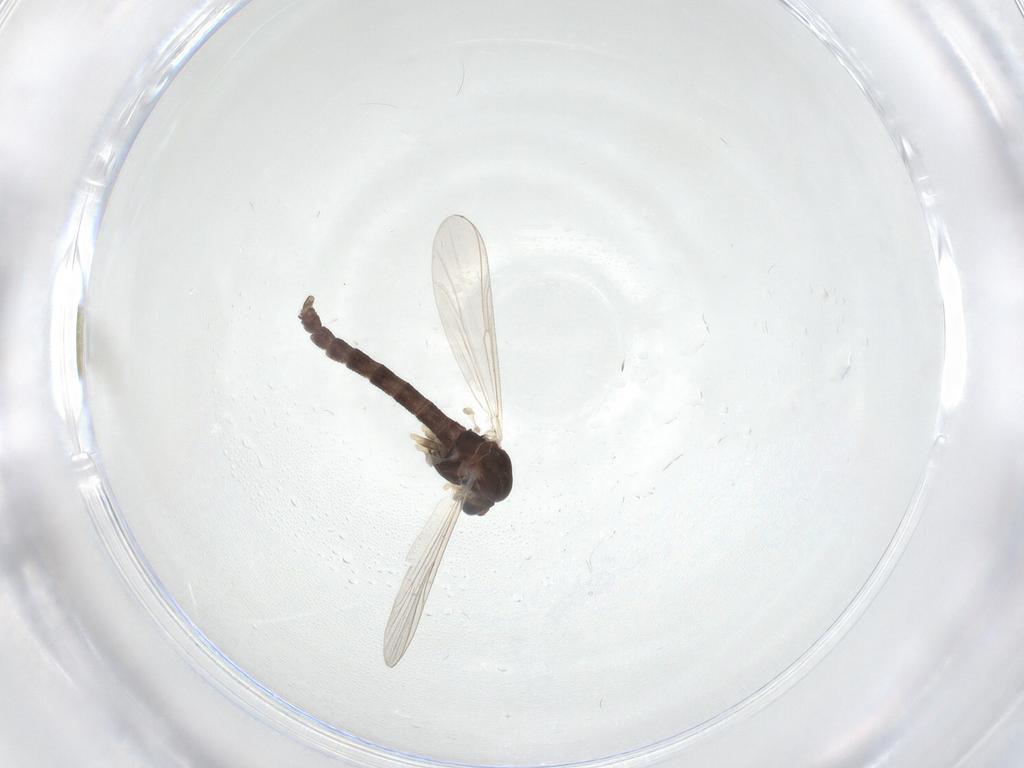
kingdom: Animalia
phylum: Arthropoda
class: Insecta
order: Diptera
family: Chironomidae
